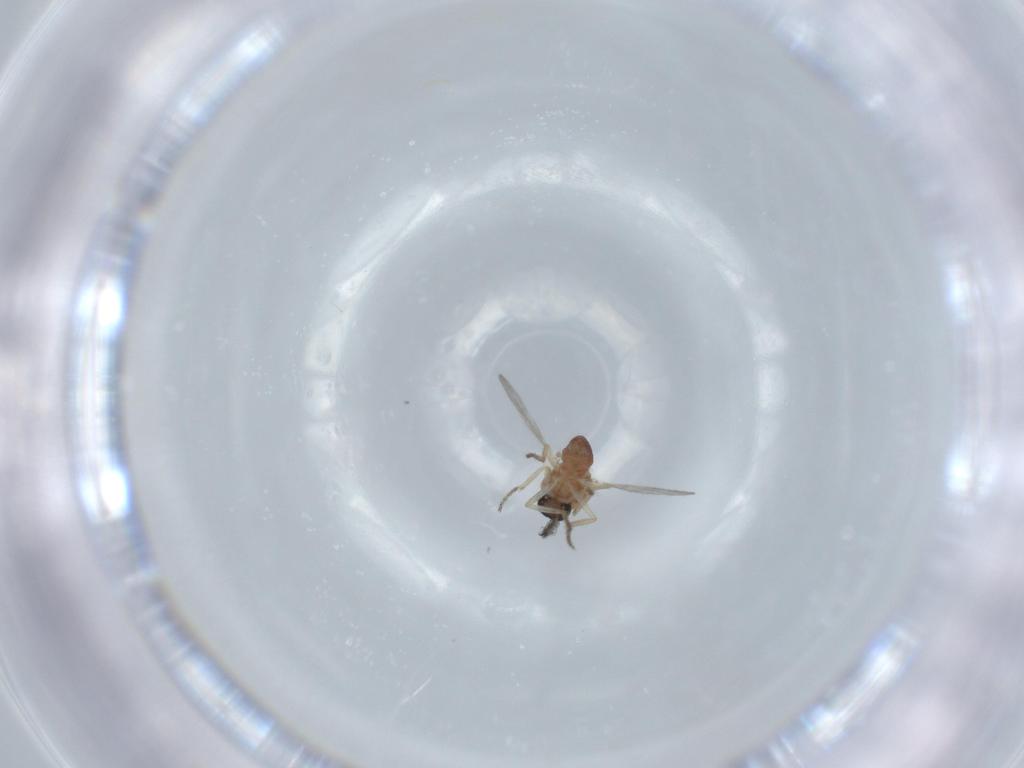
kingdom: Animalia
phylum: Arthropoda
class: Insecta
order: Diptera
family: Ceratopogonidae
